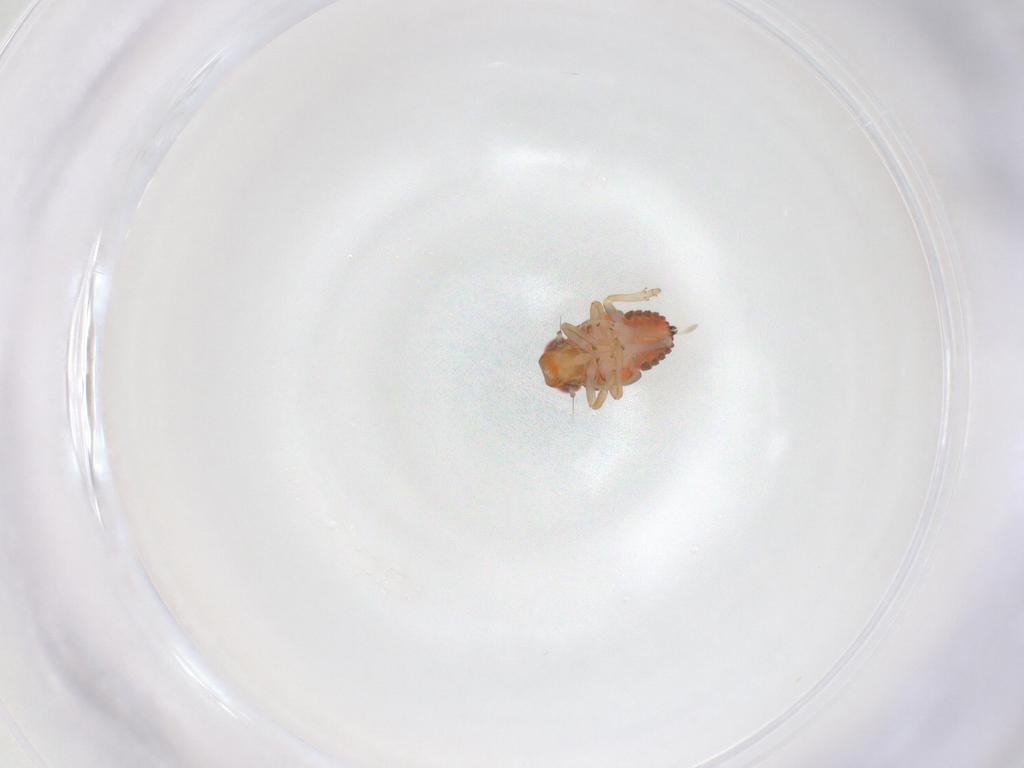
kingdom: Animalia
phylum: Arthropoda
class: Insecta
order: Hemiptera
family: Issidae
